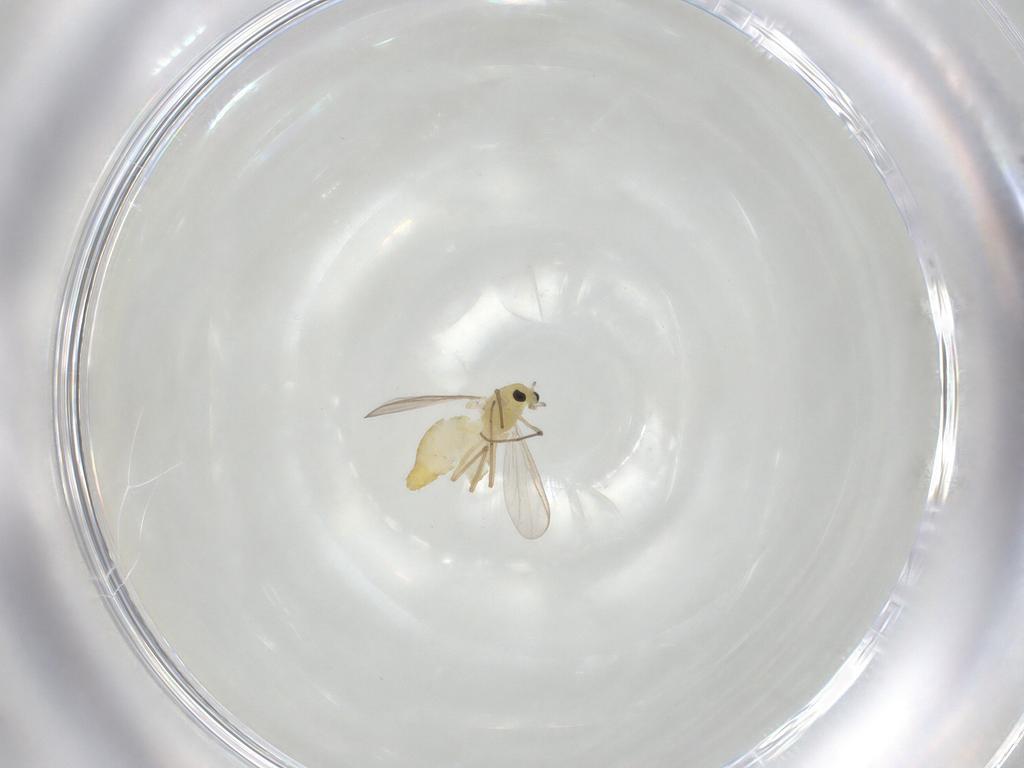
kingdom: Animalia
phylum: Arthropoda
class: Insecta
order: Diptera
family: Chironomidae
